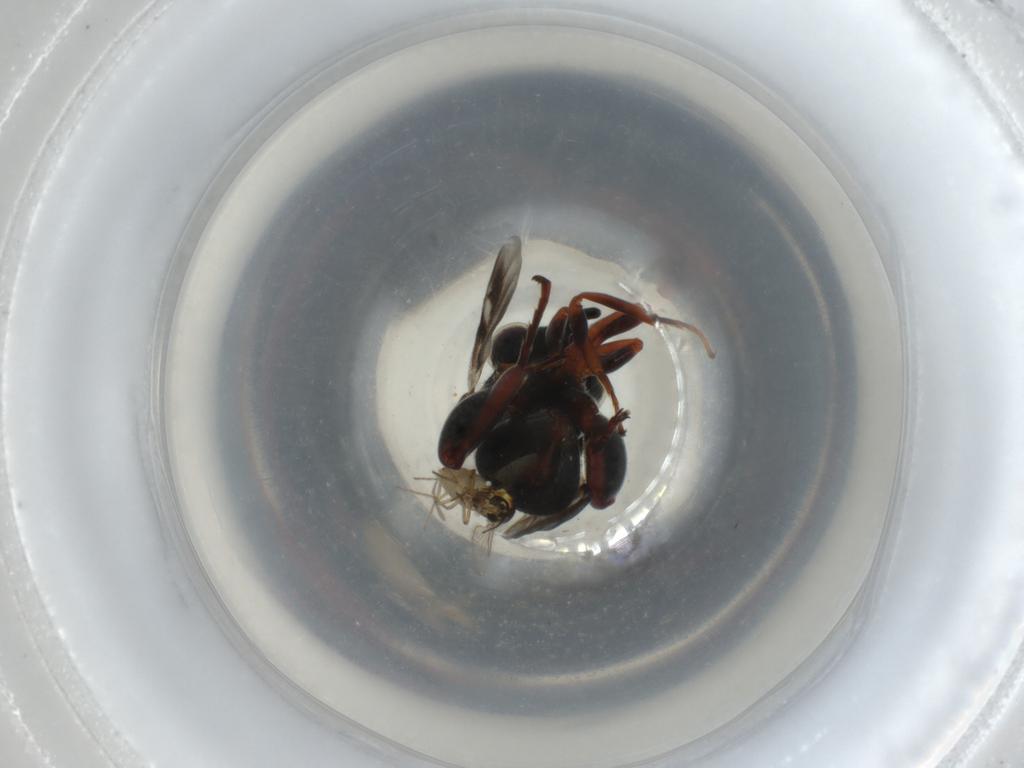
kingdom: Animalia
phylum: Arthropoda
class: Insecta
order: Diptera
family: Ceratopogonidae
